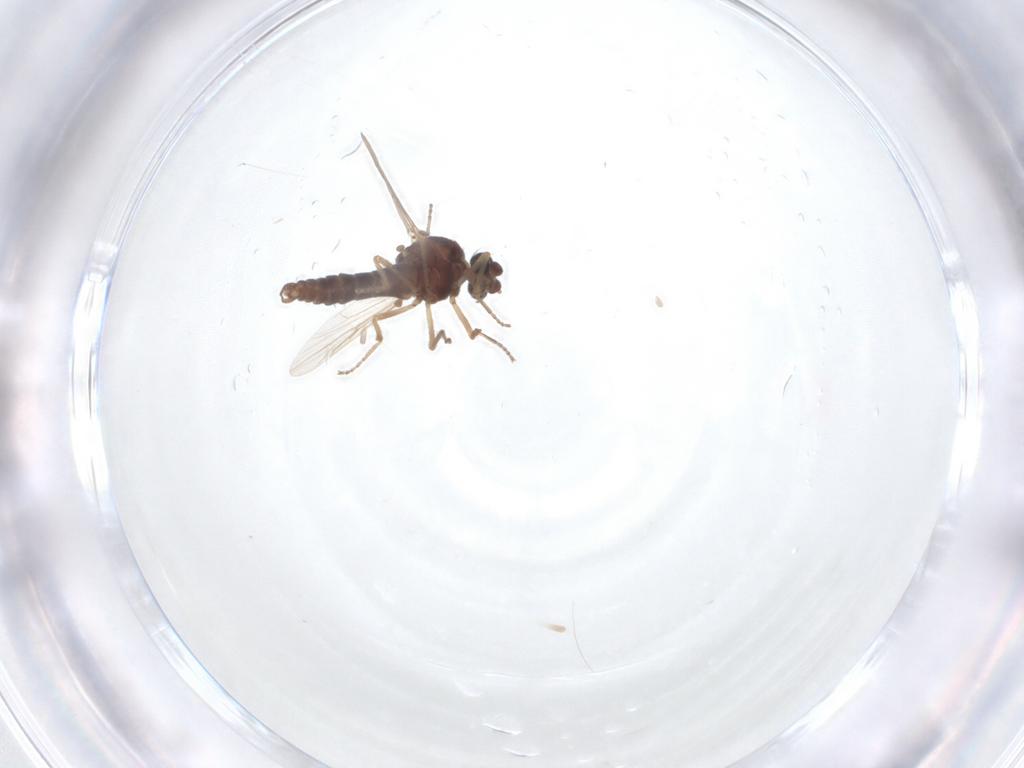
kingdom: Animalia
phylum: Arthropoda
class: Insecta
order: Diptera
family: Ceratopogonidae
